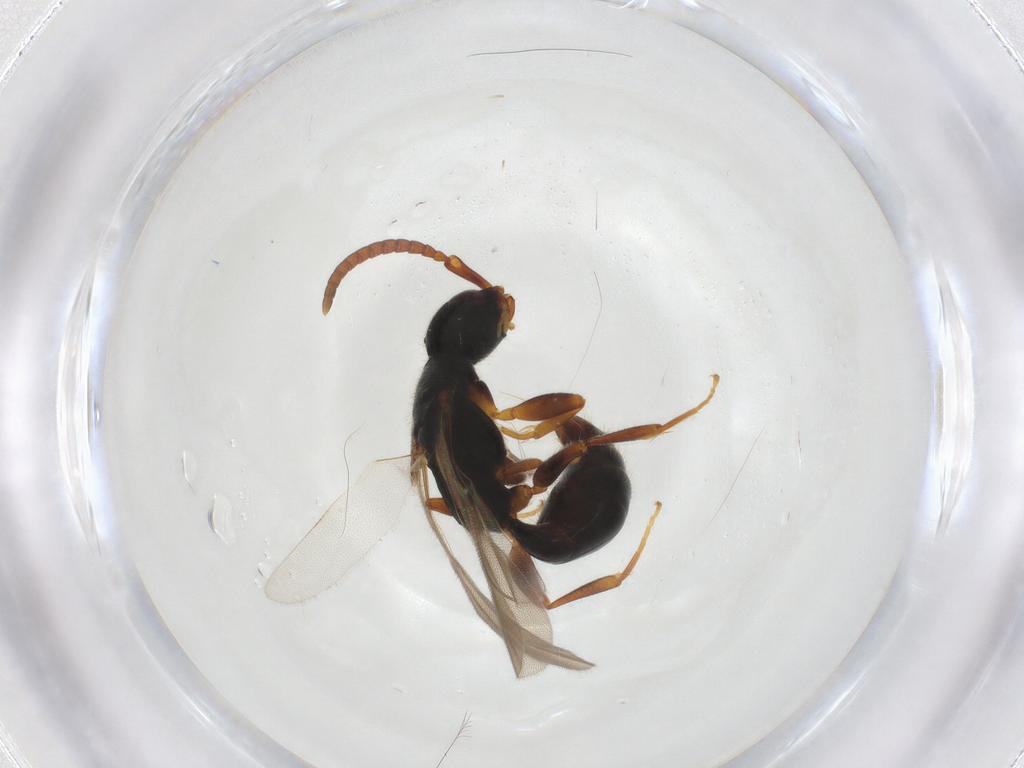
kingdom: Animalia
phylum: Arthropoda
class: Insecta
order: Hymenoptera
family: Bethylidae
